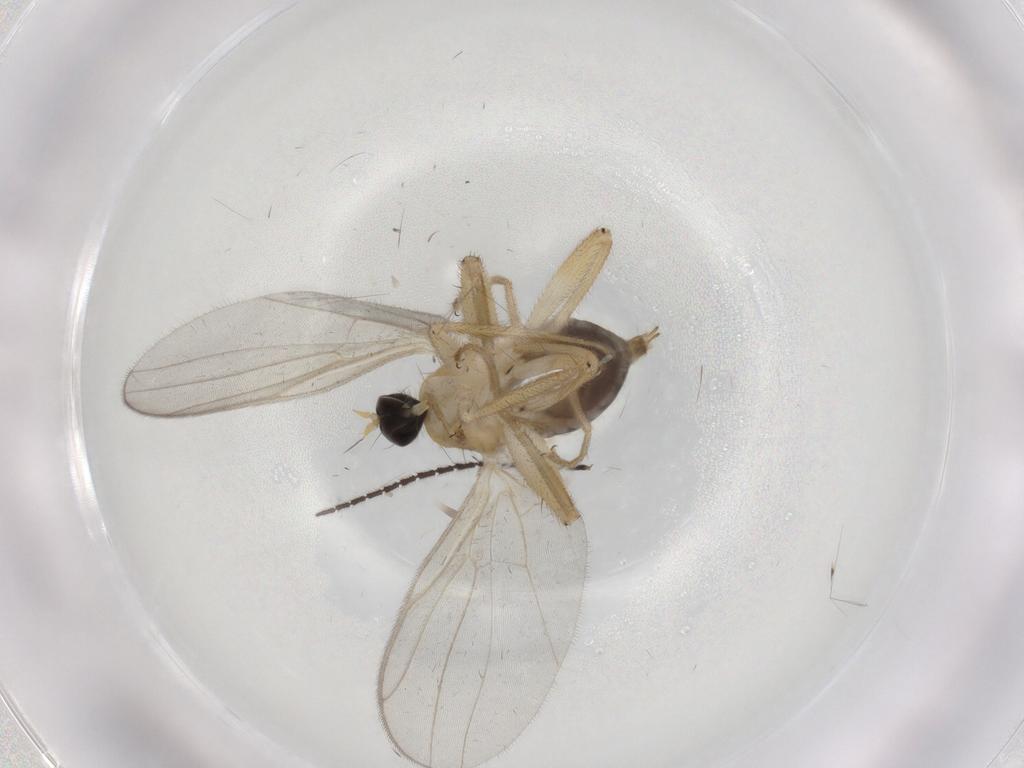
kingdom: Animalia
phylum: Arthropoda
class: Insecta
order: Diptera
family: Hybotidae
